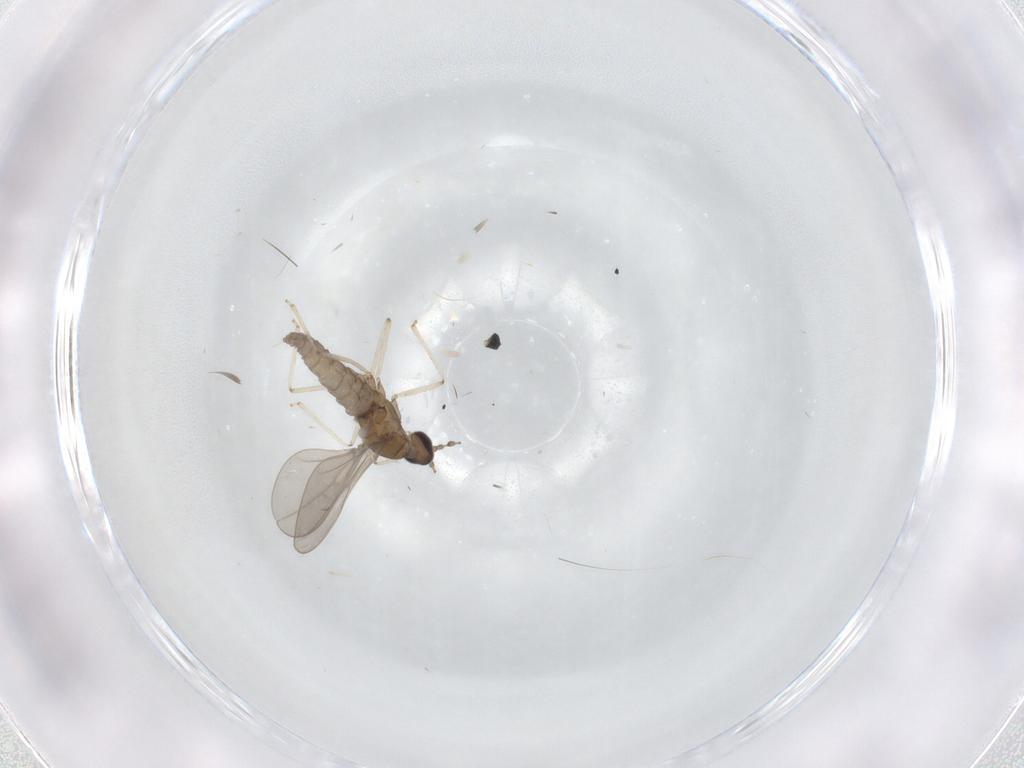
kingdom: Animalia
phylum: Arthropoda
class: Insecta
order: Diptera
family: Cecidomyiidae
